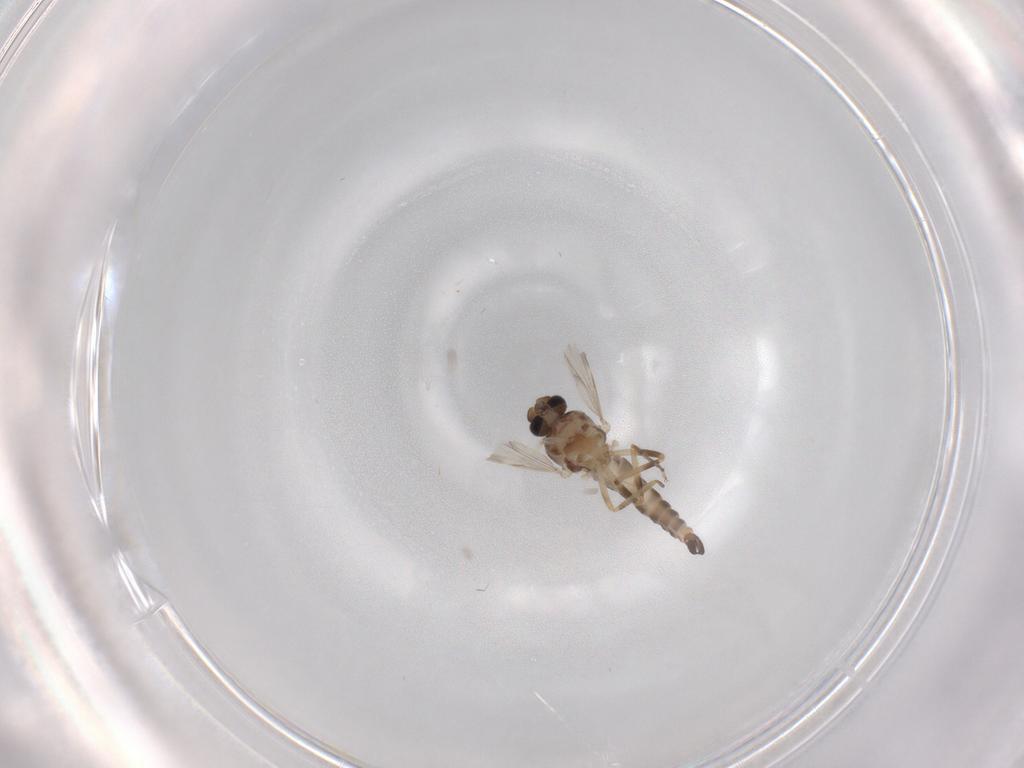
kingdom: Animalia
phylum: Arthropoda
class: Insecta
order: Diptera
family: Ceratopogonidae
